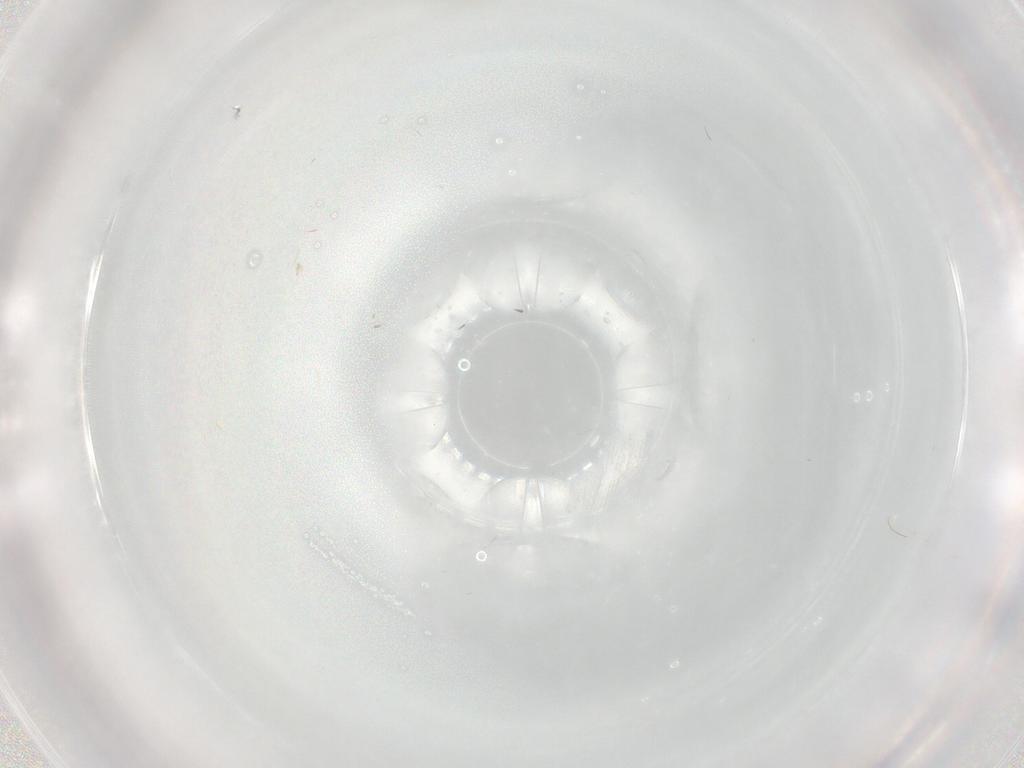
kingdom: Animalia
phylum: Arthropoda
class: Insecta
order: Diptera
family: Sciaridae
